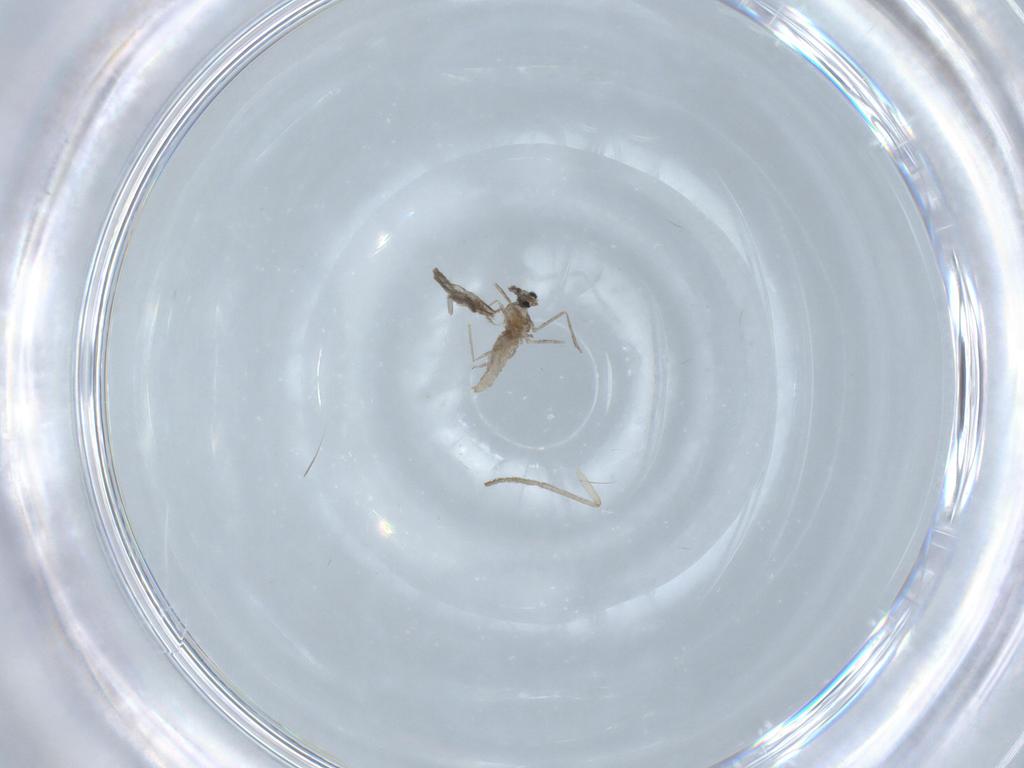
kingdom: Animalia
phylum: Arthropoda
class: Insecta
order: Diptera
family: Psychodidae
